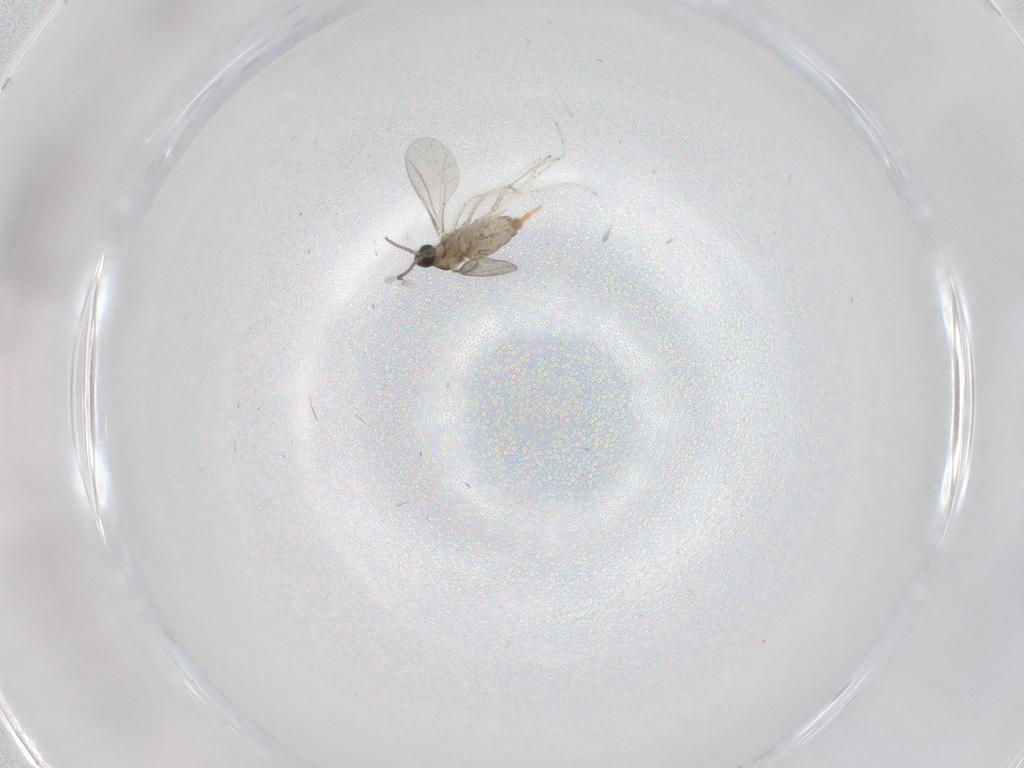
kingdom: Animalia
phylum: Arthropoda
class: Insecta
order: Diptera
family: Cecidomyiidae
